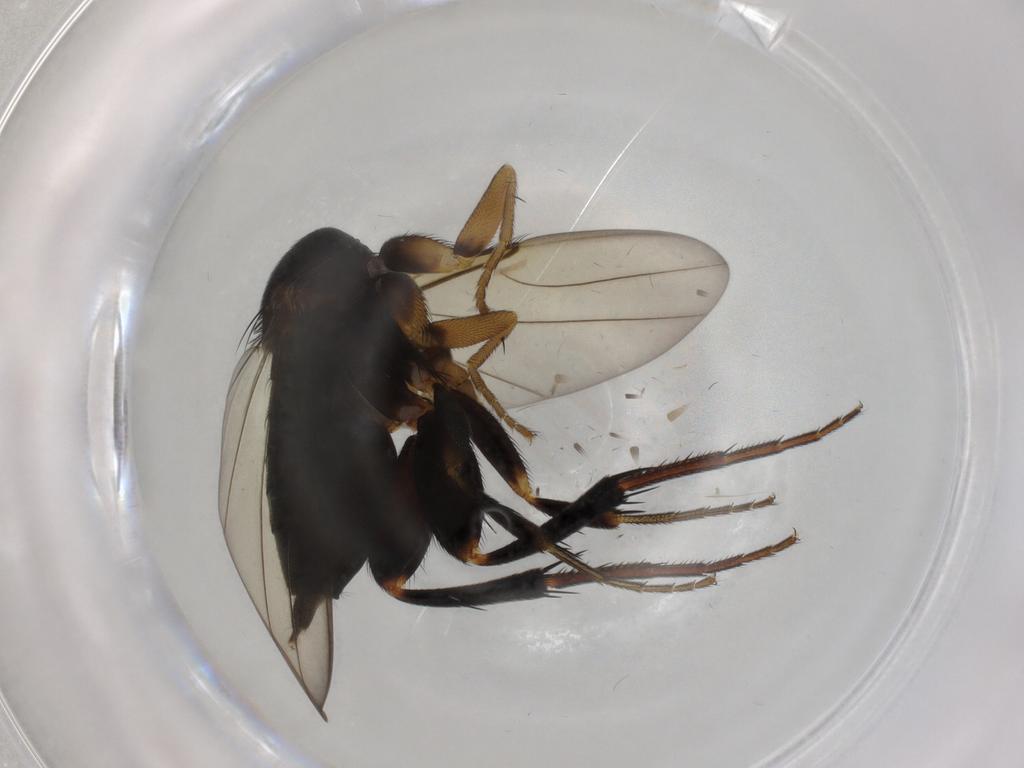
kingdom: Animalia
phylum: Arthropoda
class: Insecta
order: Diptera
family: Phoridae
